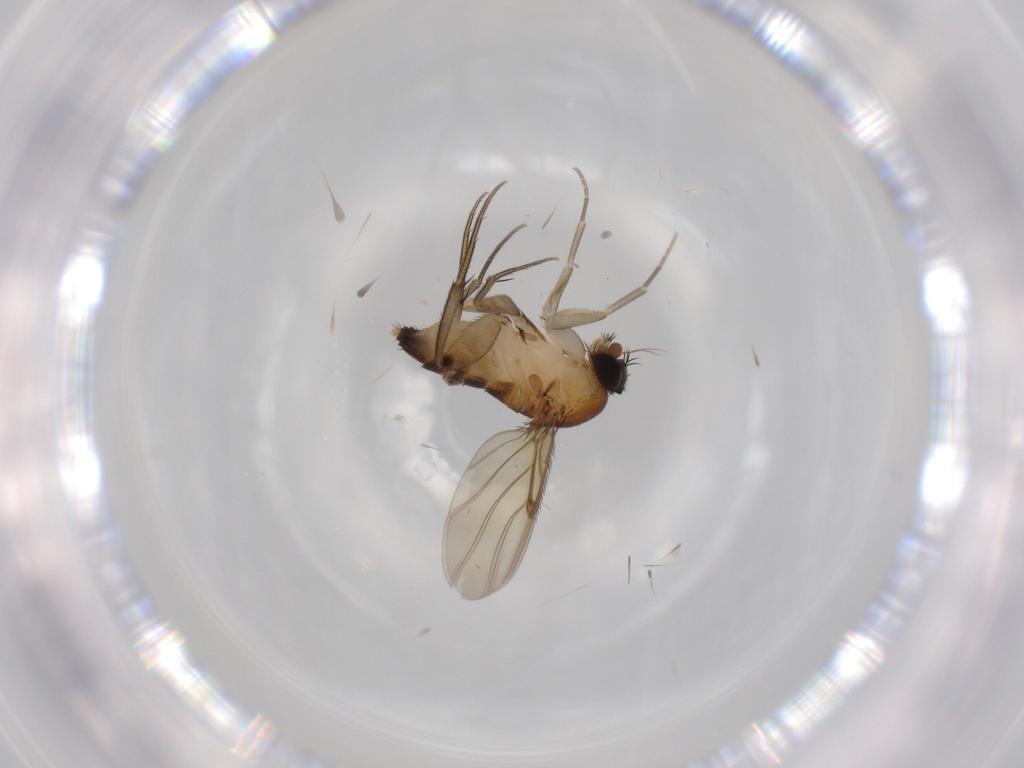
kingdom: Animalia
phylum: Arthropoda
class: Insecta
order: Diptera
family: Phoridae
